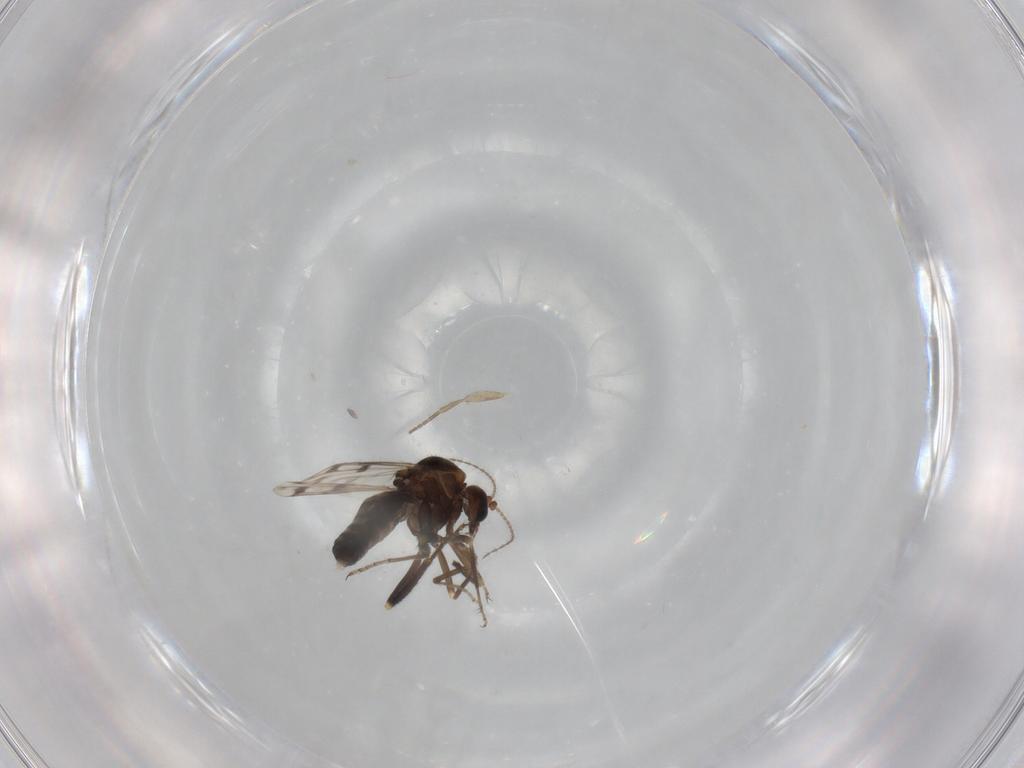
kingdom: Animalia
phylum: Arthropoda
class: Insecta
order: Diptera
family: Ceratopogonidae
